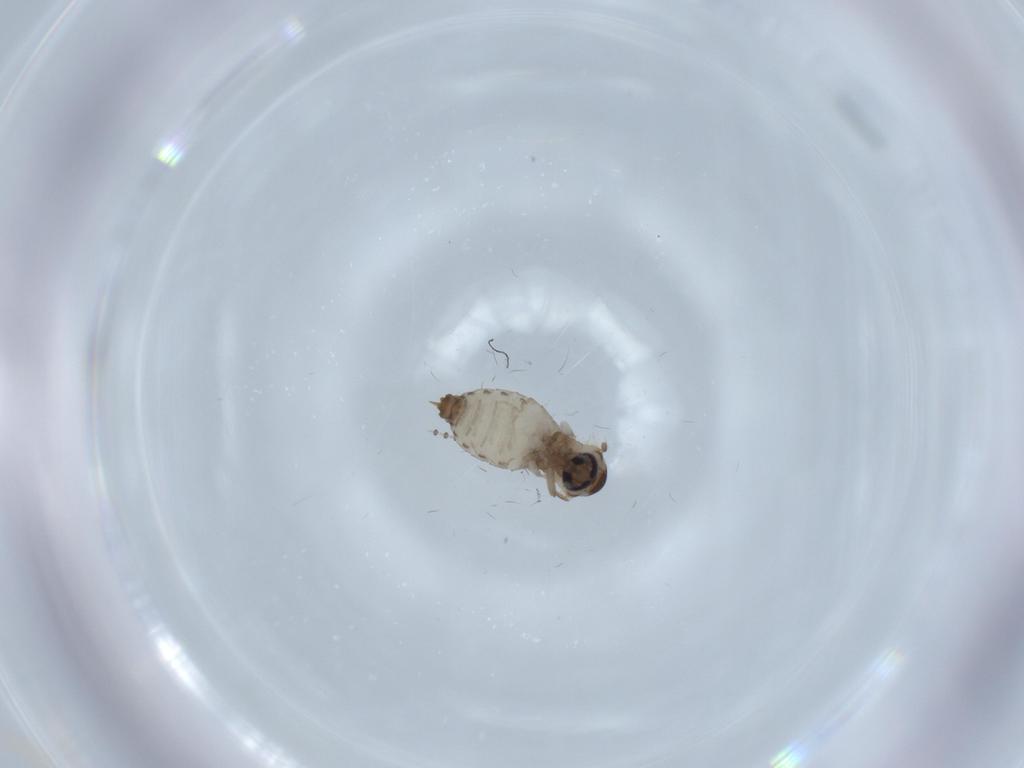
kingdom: Animalia
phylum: Arthropoda
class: Insecta
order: Diptera
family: Psychodidae
